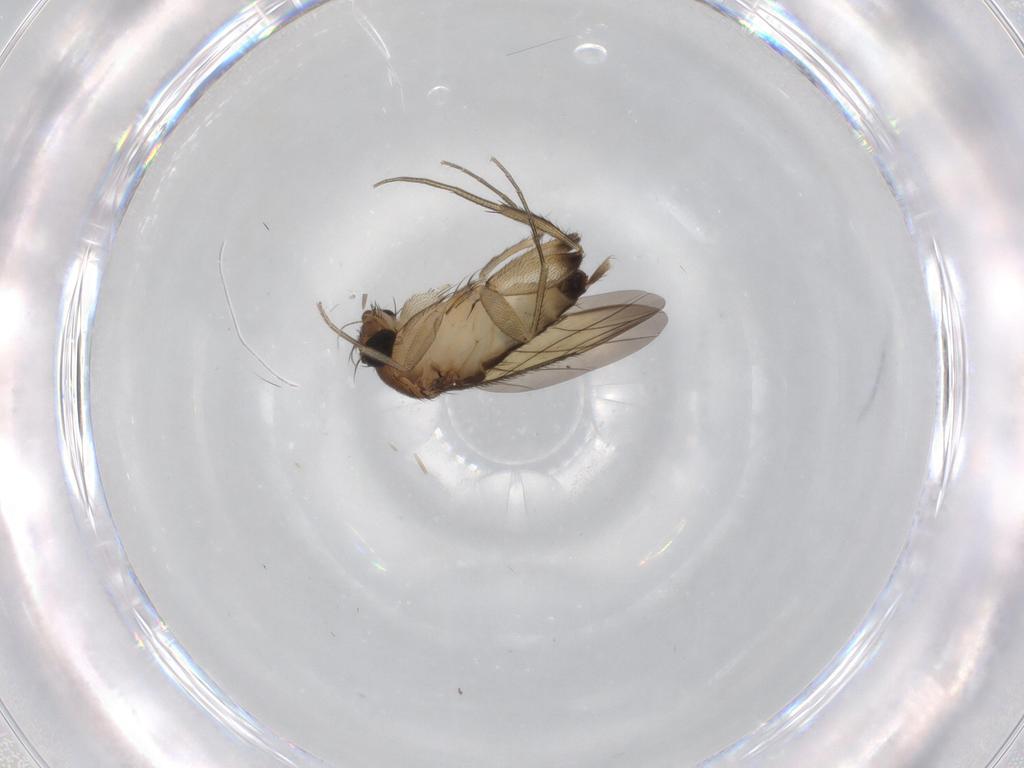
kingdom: Animalia
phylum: Arthropoda
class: Insecta
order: Diptera
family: Phoridae
